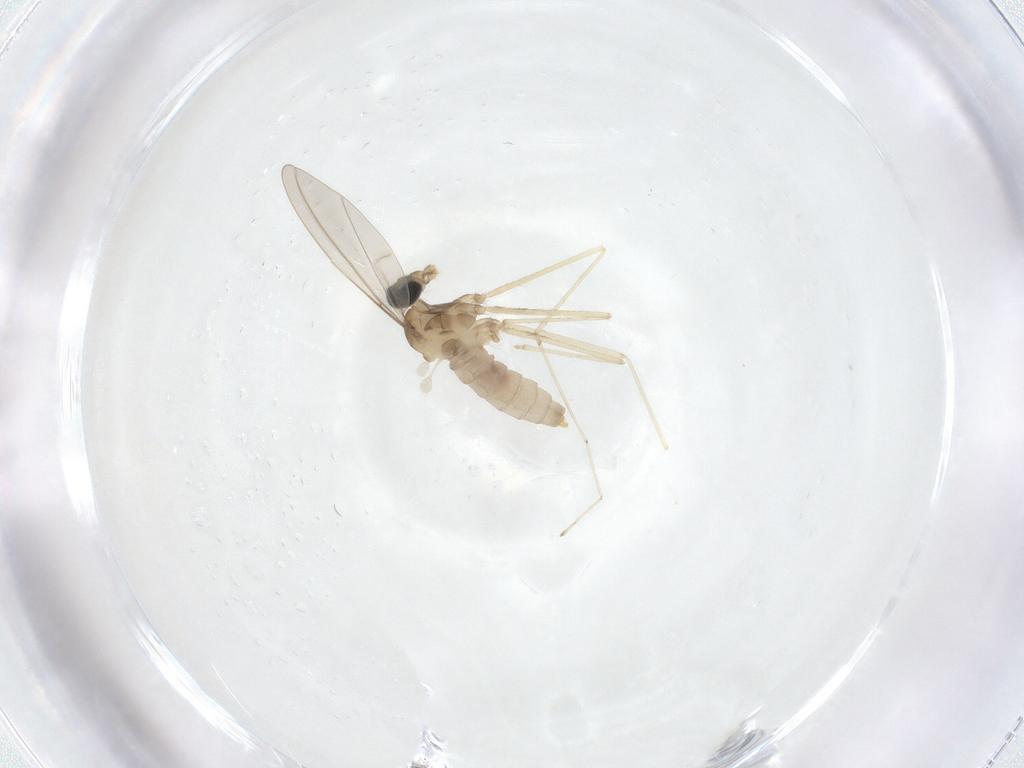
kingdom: Animalia
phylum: Arthropoda
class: Insecta
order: Diptera
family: Cecidomyiidae
